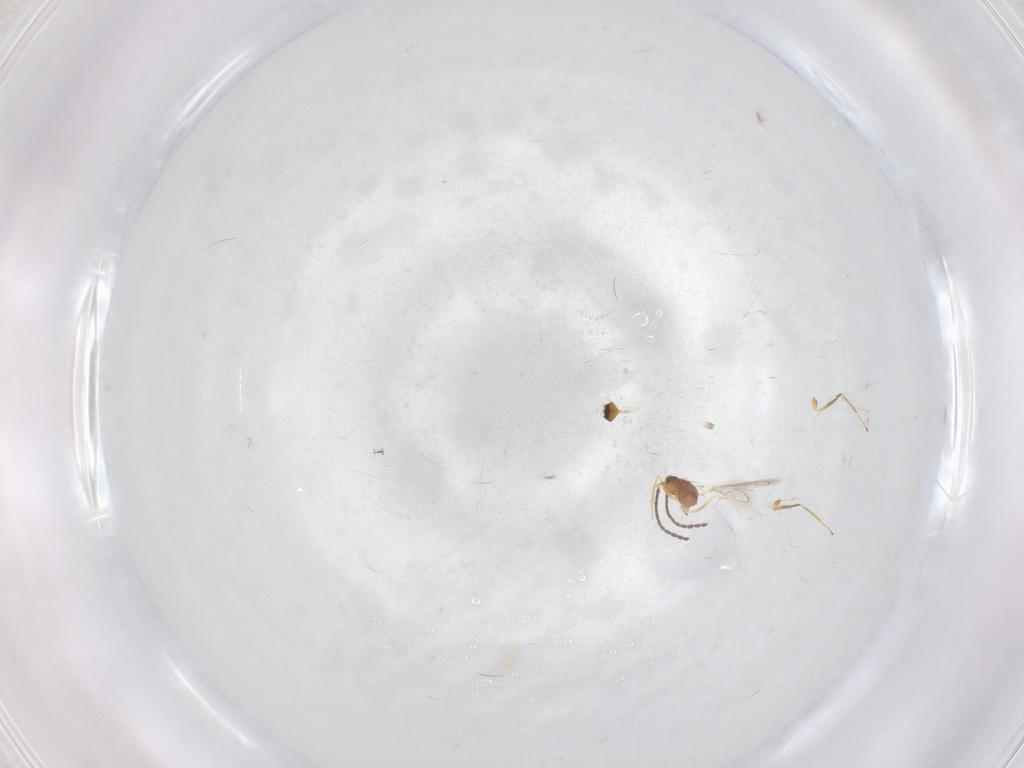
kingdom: Animalia
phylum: Arthropoda
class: Insecta
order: Hymenoptera
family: Mymaridae
